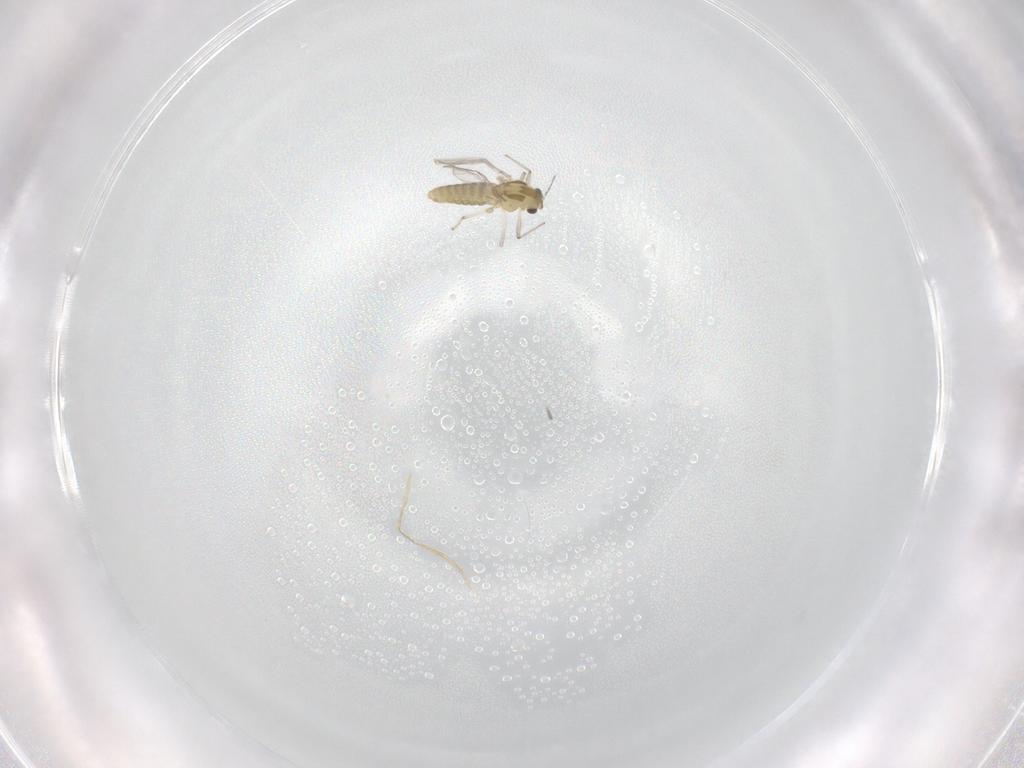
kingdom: Animalia
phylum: Arthropoda
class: Insecta
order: Diptera
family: Chironomidae
